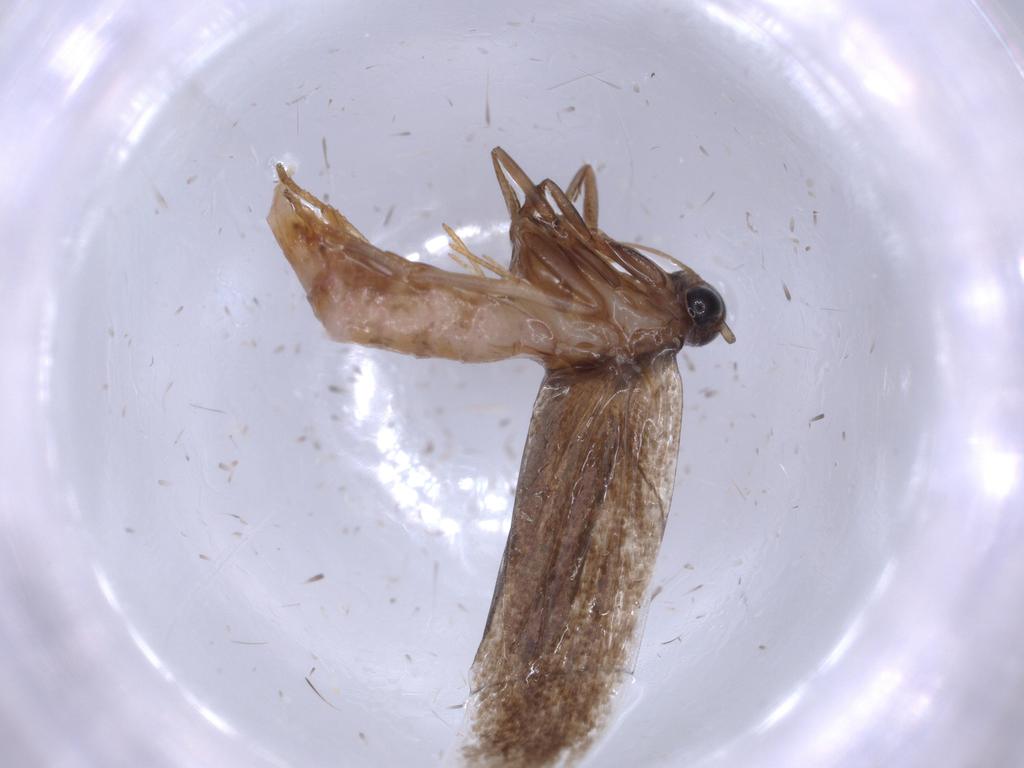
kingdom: Animalia
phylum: Arthropoda
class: Insecta
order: Lepidoptera
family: Oecophoridae
